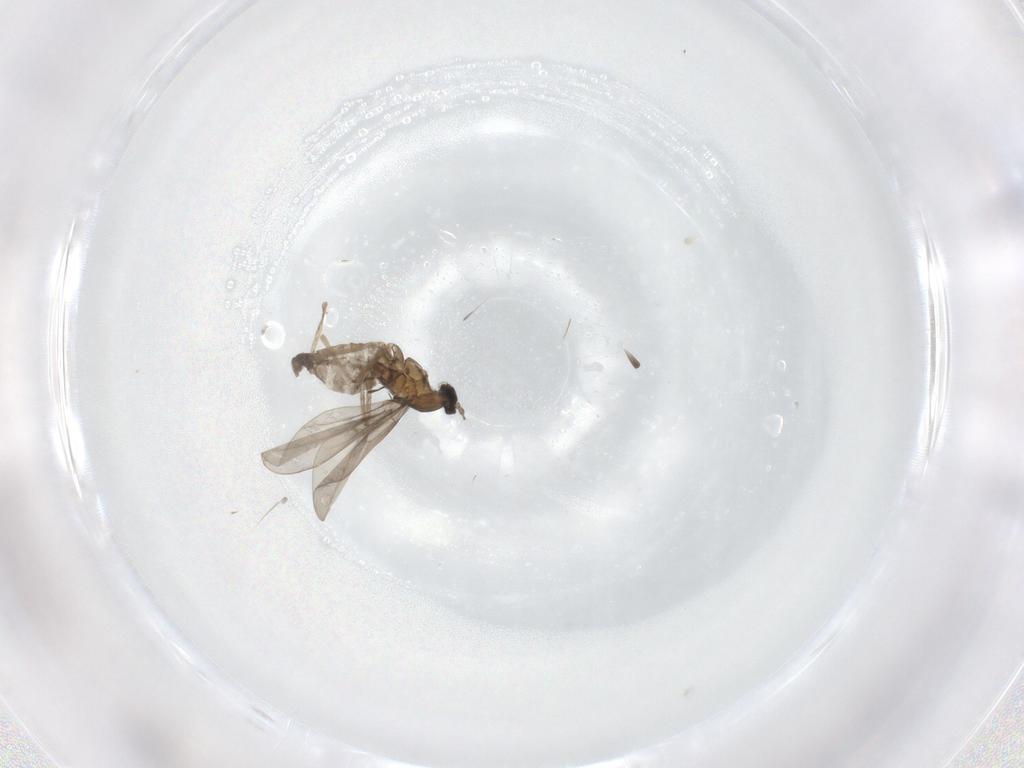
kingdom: Animalia
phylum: Arthropoda
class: Insecta
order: Diptera
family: Cecidomyiidae
